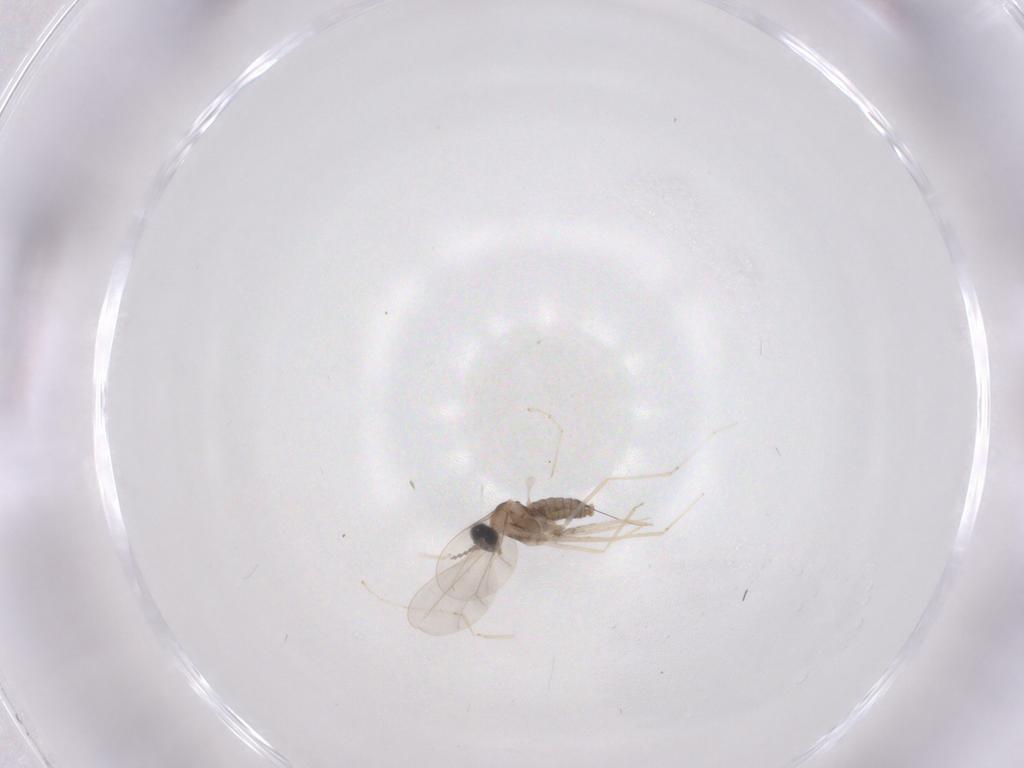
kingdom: Animalia
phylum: Arthropoda
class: Insecta
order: Diptera
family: Cecidomyiidae
